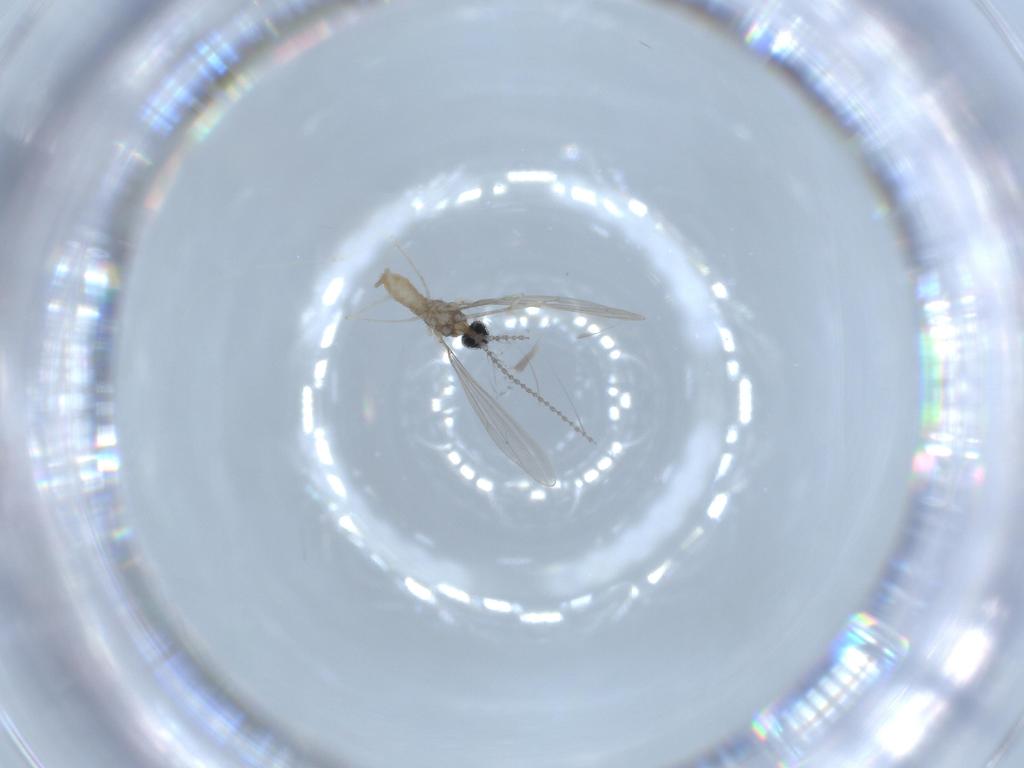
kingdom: Animalia
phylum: Arthropoda
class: Insecta
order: Diptera
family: Cecidomyiidae
